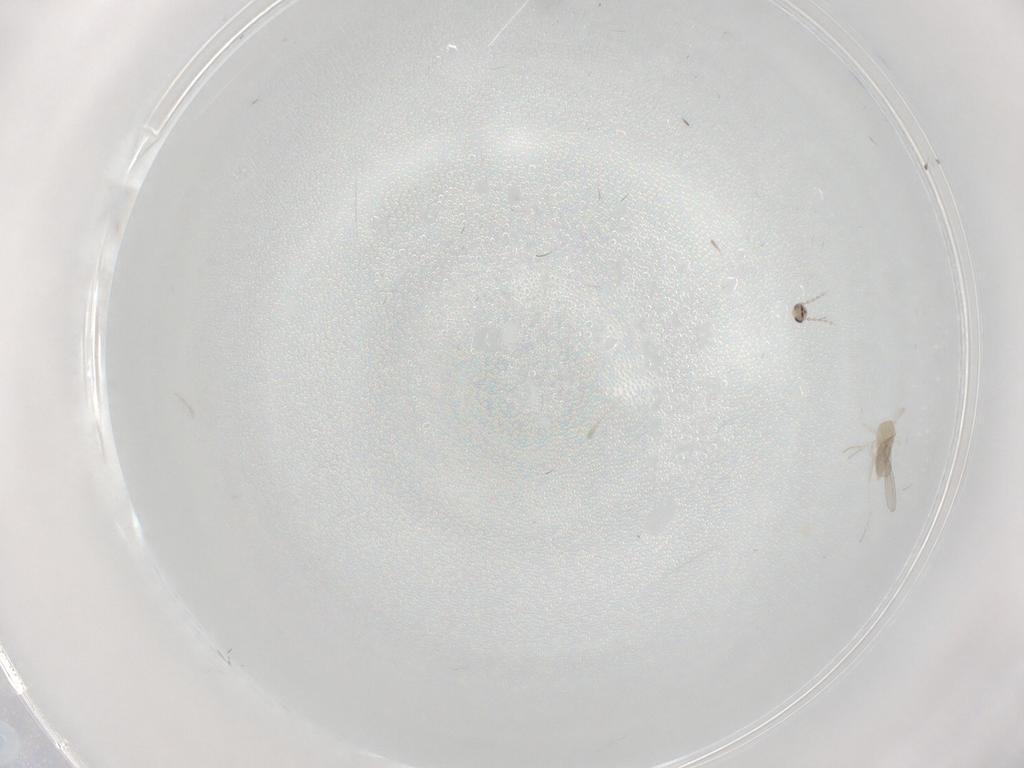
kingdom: Animalia
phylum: Arthropoda
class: Insecta
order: Diptera
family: Cecidomyiidae
